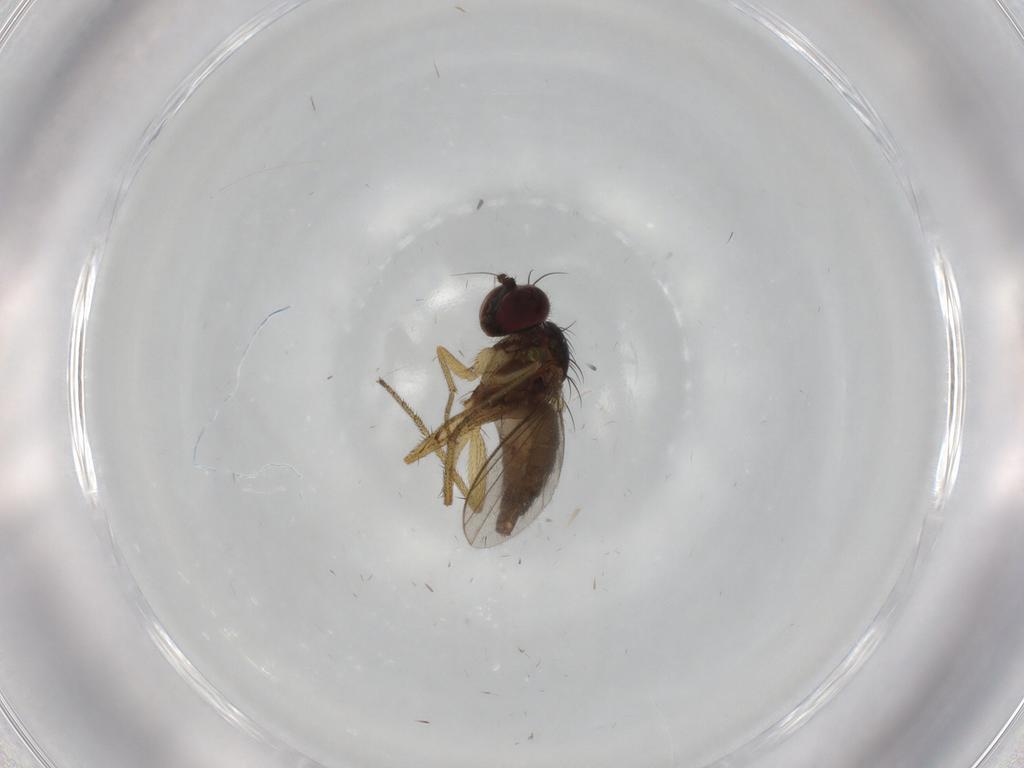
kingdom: Animalia
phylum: Arthropoda
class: Insecta
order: Diptera
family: Dolichopodidae
